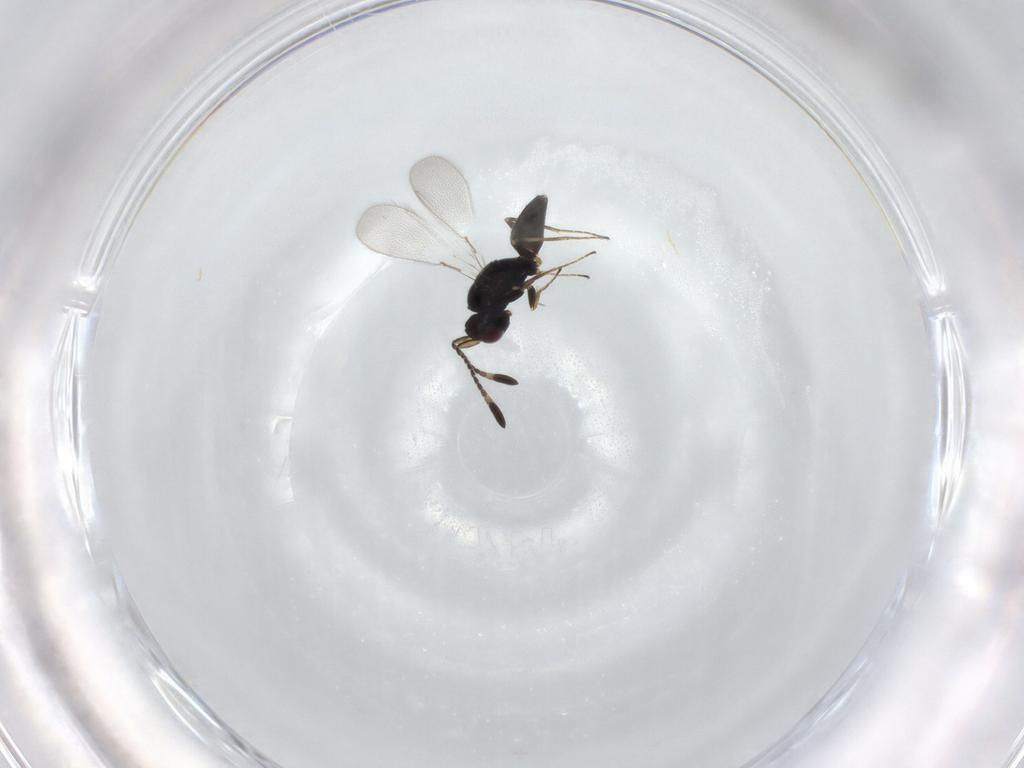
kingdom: Animalia
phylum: Arthropoda
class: Insecta
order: Hymenoptera
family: Mymaridae
